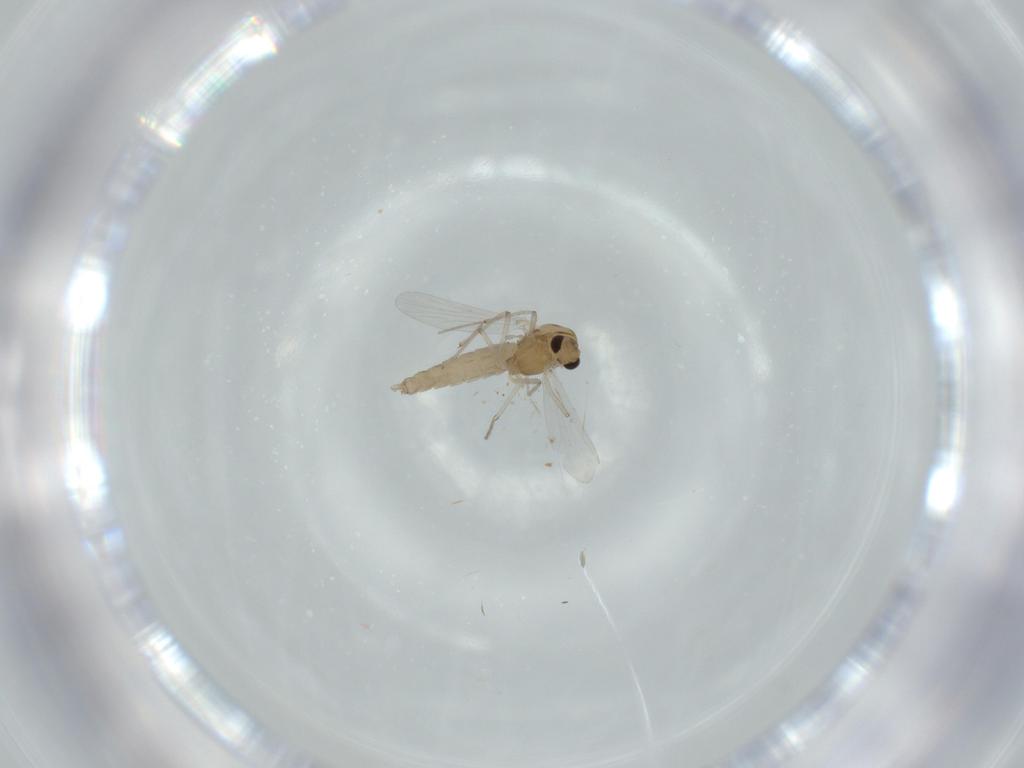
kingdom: Animalia
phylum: Arthropoda
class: Insecta
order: Diptera
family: Chironomidae
